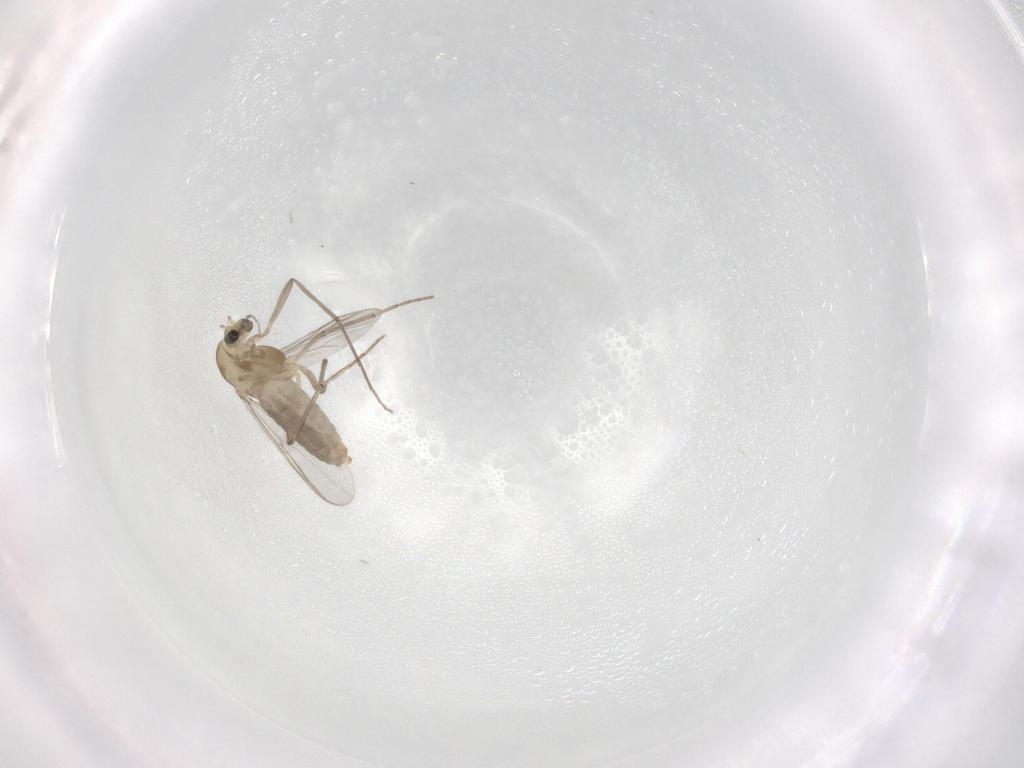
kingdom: Animalia
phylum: Arthropoda
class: Insecta
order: Diptera
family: Chironomidae
